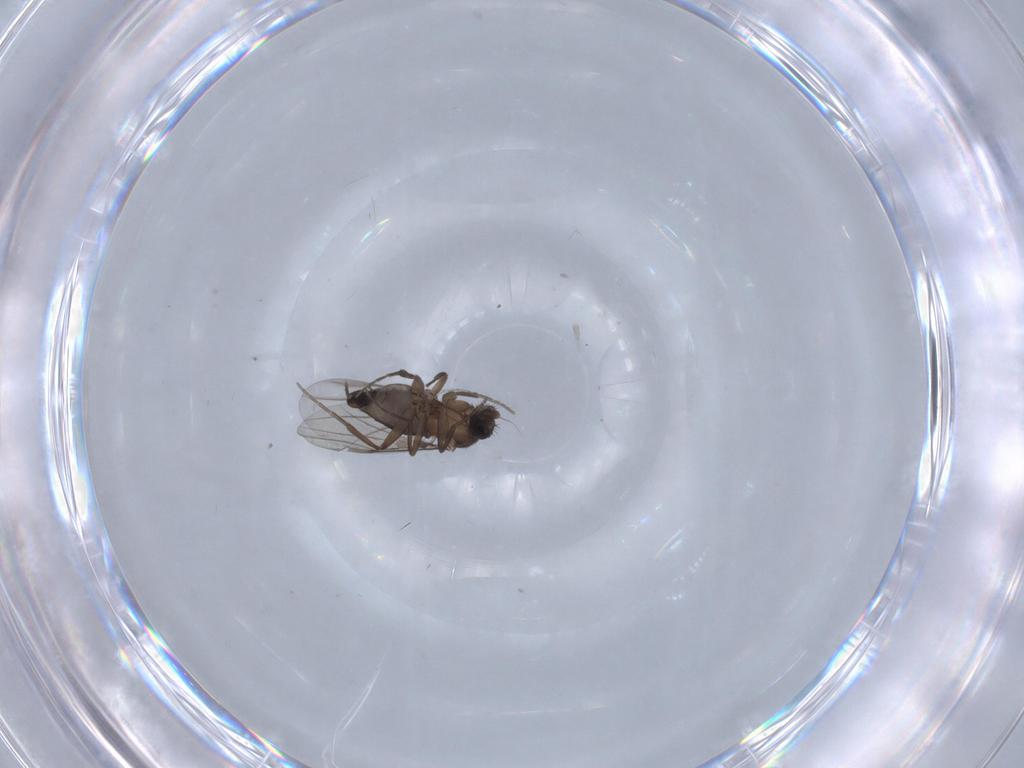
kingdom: Animalia
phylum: Arthropoda
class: Insecta
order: Diptera
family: Phoridae
